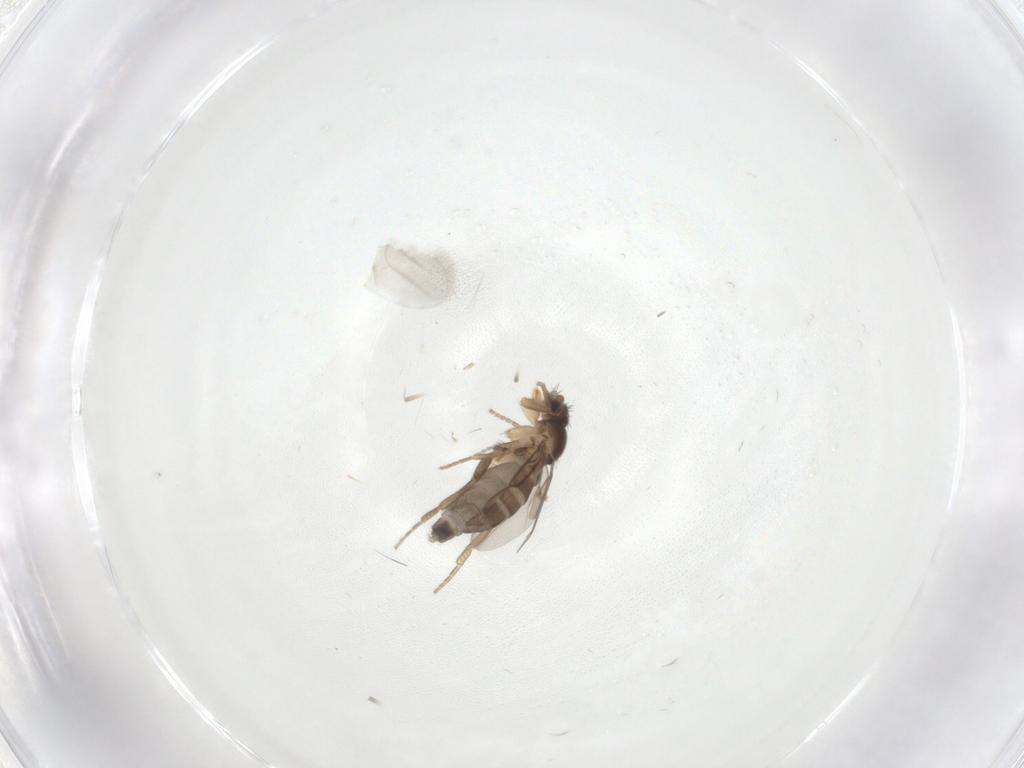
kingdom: Animalia
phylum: Arthropoda
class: Insecta
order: Diptera
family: Phoridae
